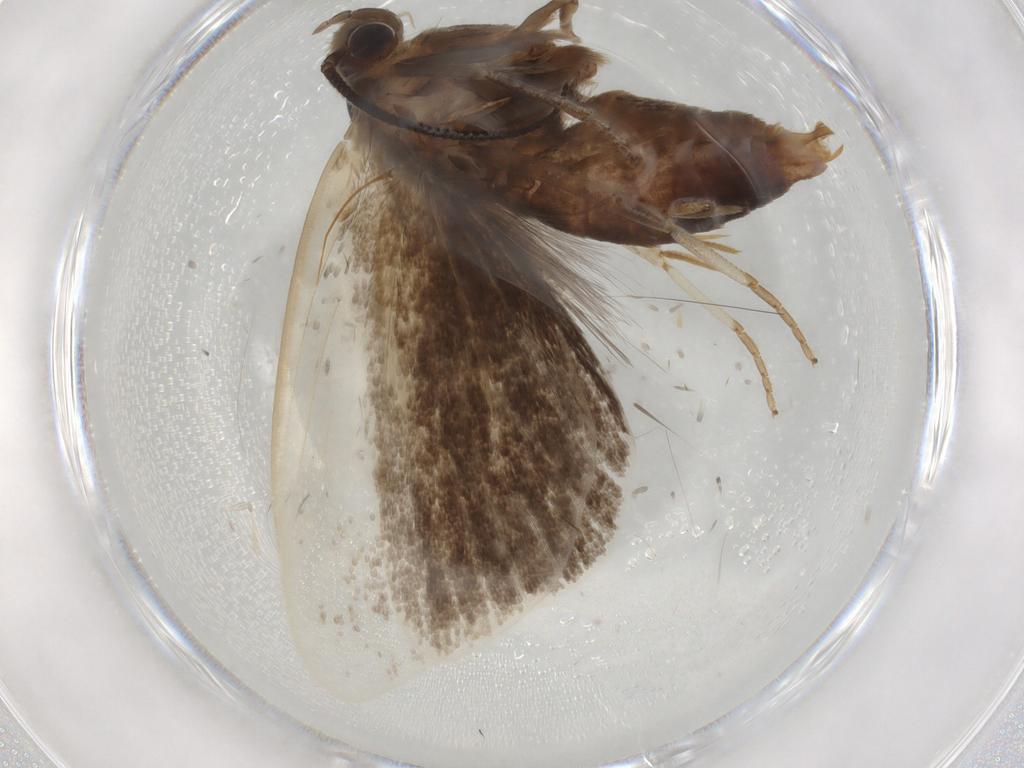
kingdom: Animalia
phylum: Arthropoda
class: Insecta
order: Lepidoptera
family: Tineidae
